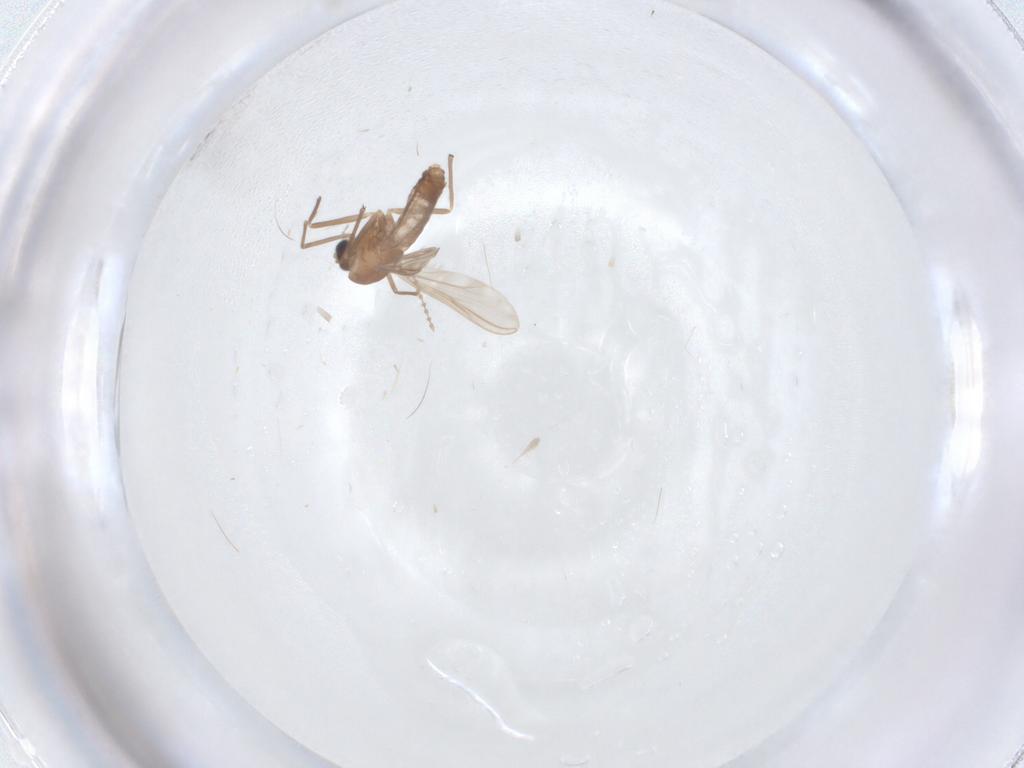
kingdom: Animalia
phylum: Arthropoda
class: Insecta
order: Diptera
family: Cecidomyiidae
